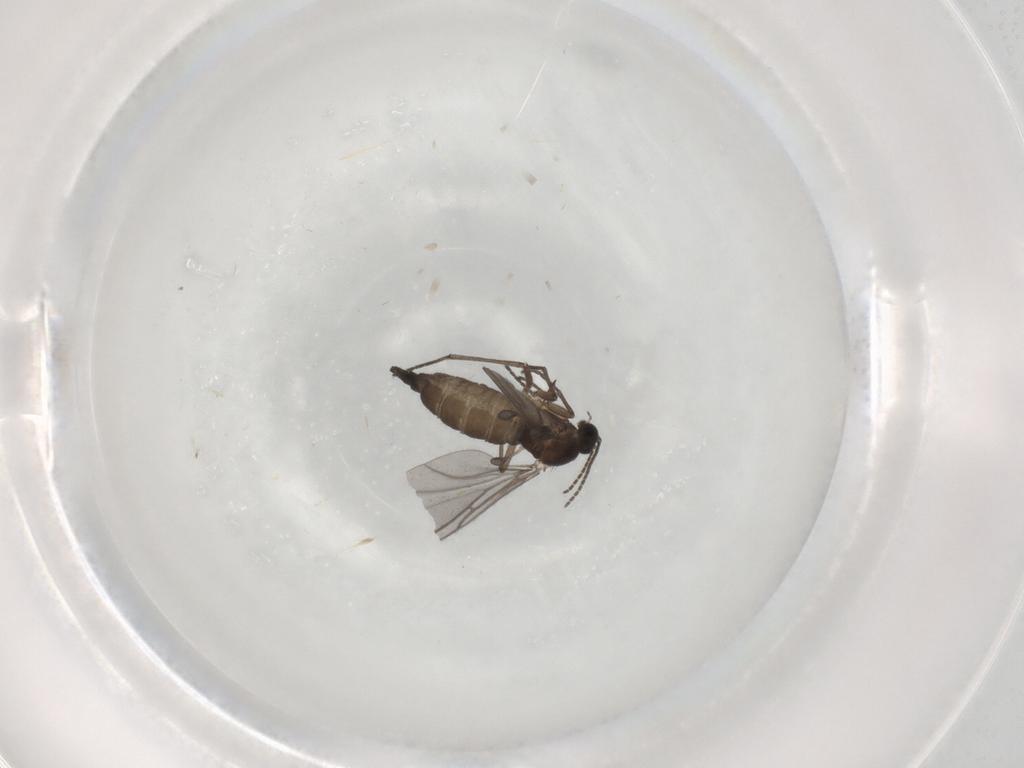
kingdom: Animalia
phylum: Arthropoda
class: Insecta
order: Diptera
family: Sciaridae
